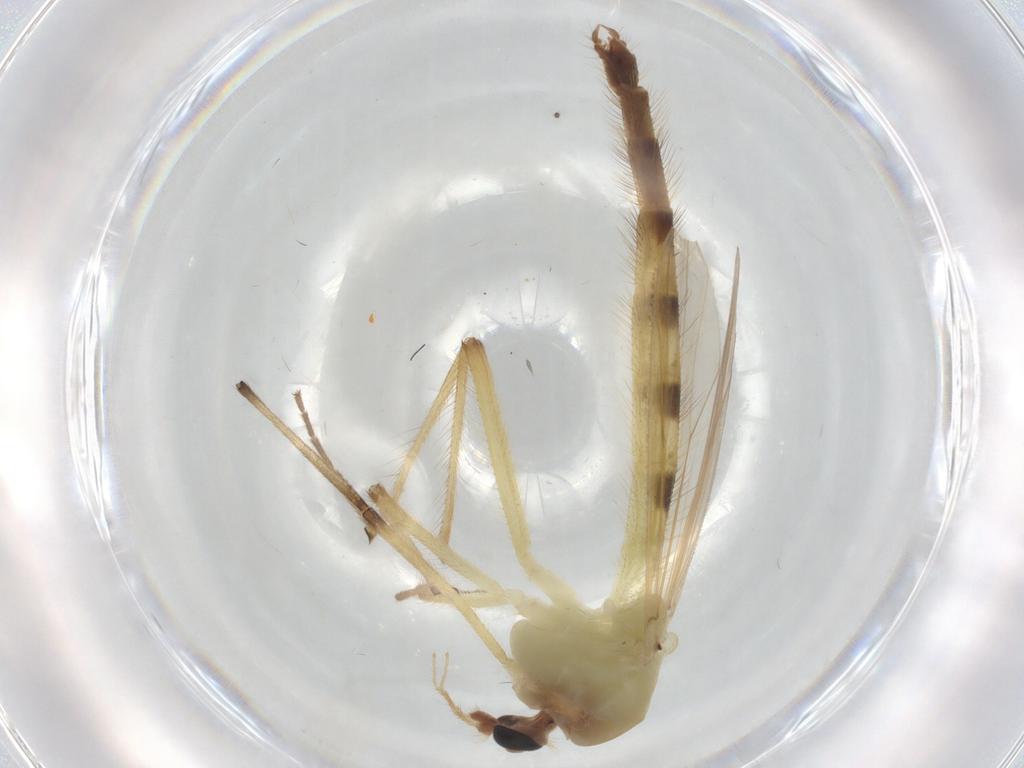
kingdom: Animalia
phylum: Arthropoda
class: Insecta
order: Diptera
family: Phoridae
